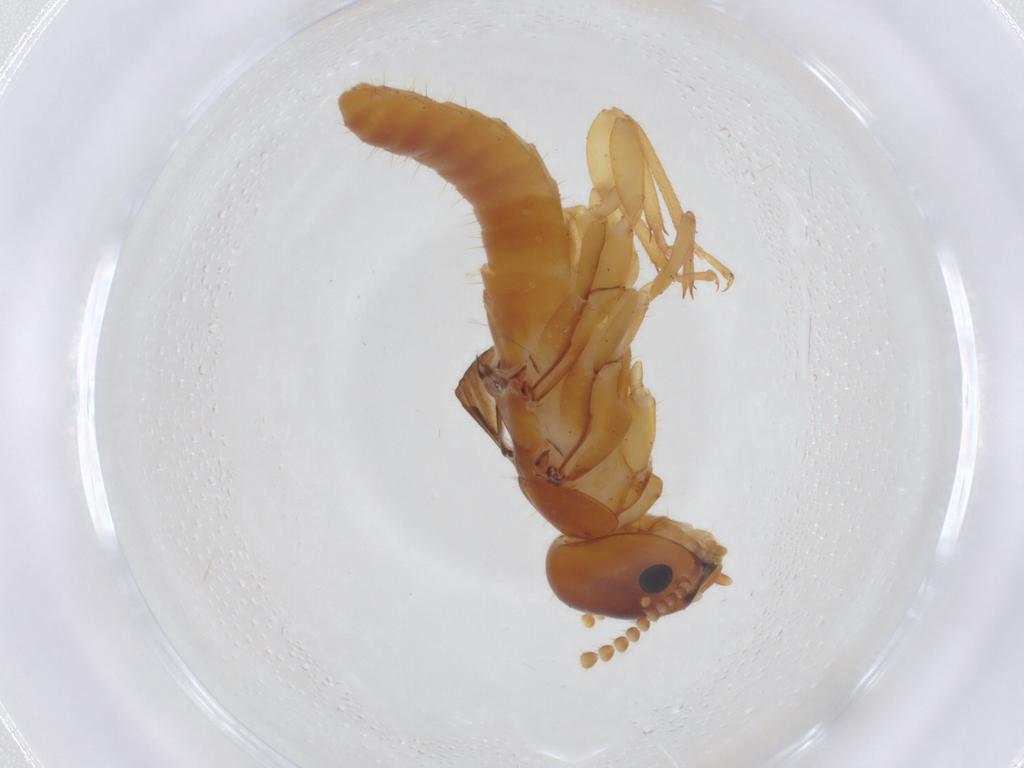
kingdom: Animalia
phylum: Arthropoda
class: Insecta
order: Blattodea
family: Kalotermitidae
